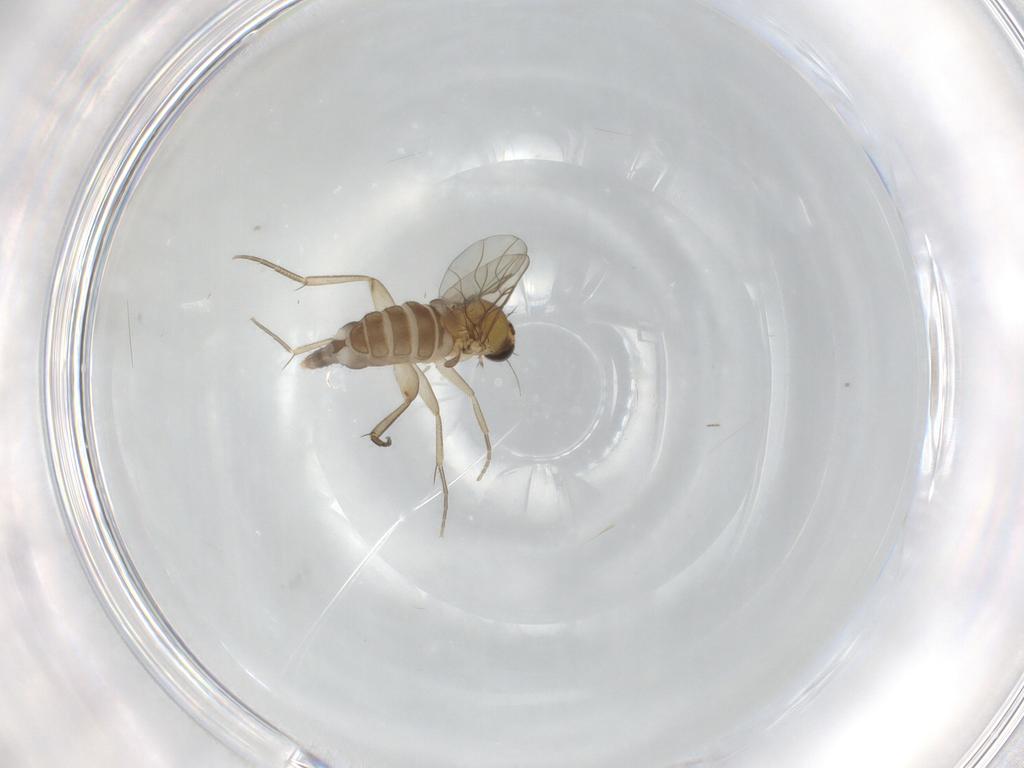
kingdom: Animalia
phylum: Arthropoda
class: Insecta
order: Diptera
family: Phoridae
